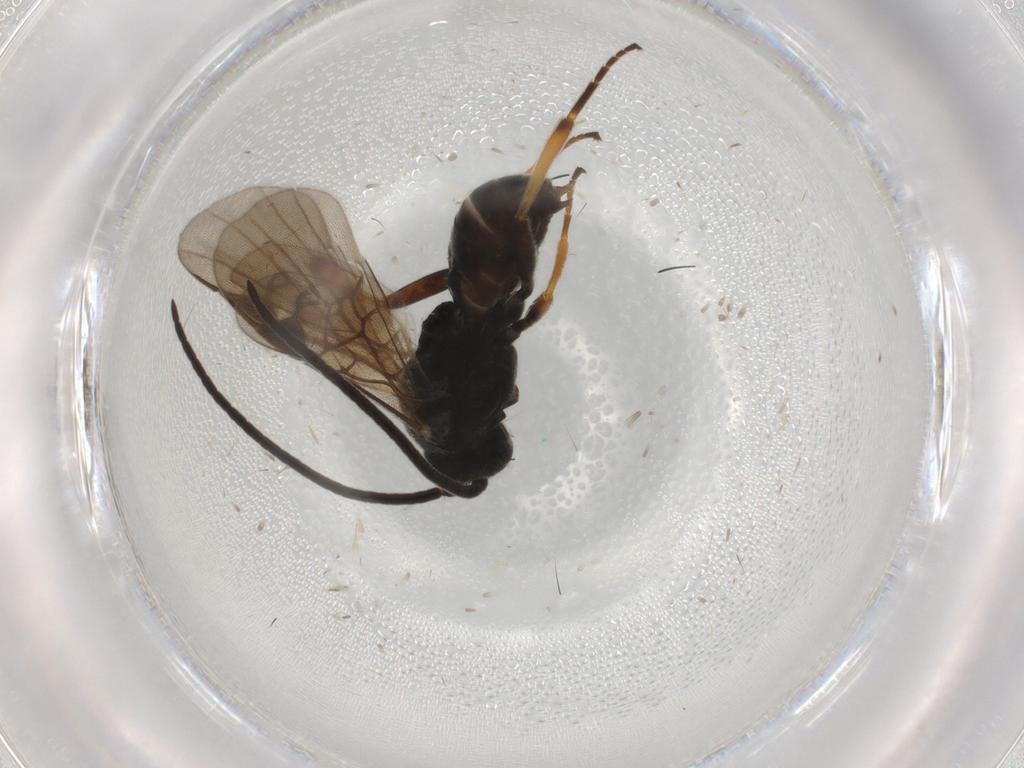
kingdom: Animalia
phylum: Arthropoda
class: Insecta
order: Hymenoptera
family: Braconidae
